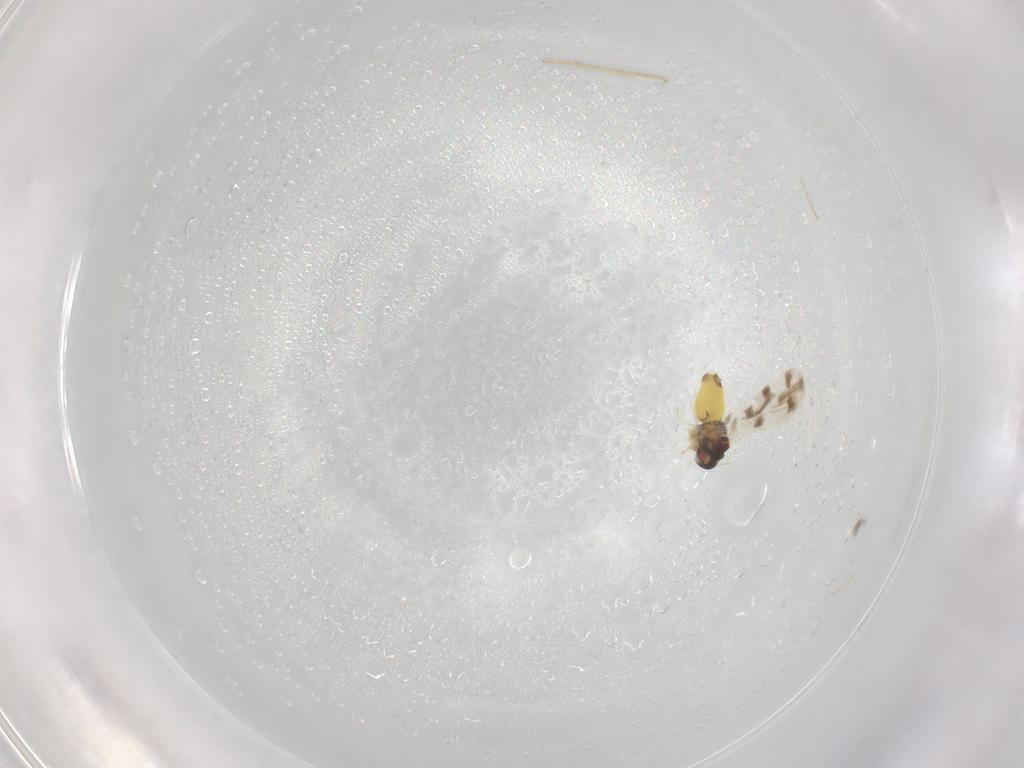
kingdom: Animalia
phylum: Arthropoda
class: Insecta
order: Hemiptera
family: Aleyrodidae
